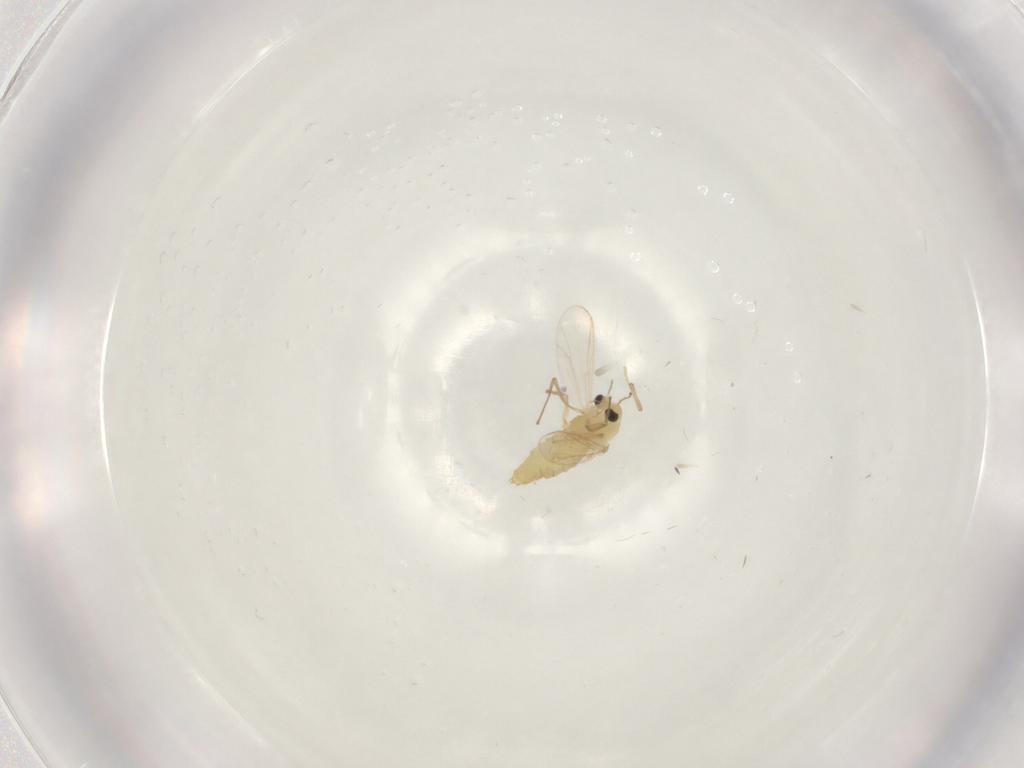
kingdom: Animalia
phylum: Arthropoda
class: Insecta
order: Diptera
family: Chironomidae
